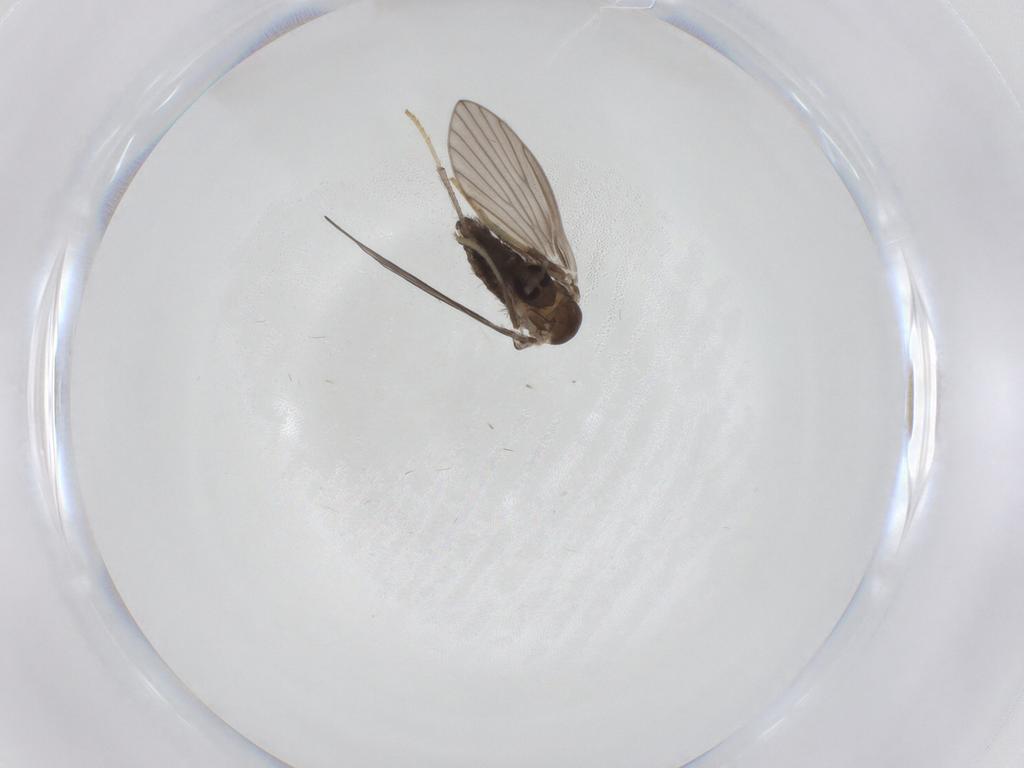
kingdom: Animalia
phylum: Arthropoda
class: Insecta
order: Diptera
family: Psychodidae
